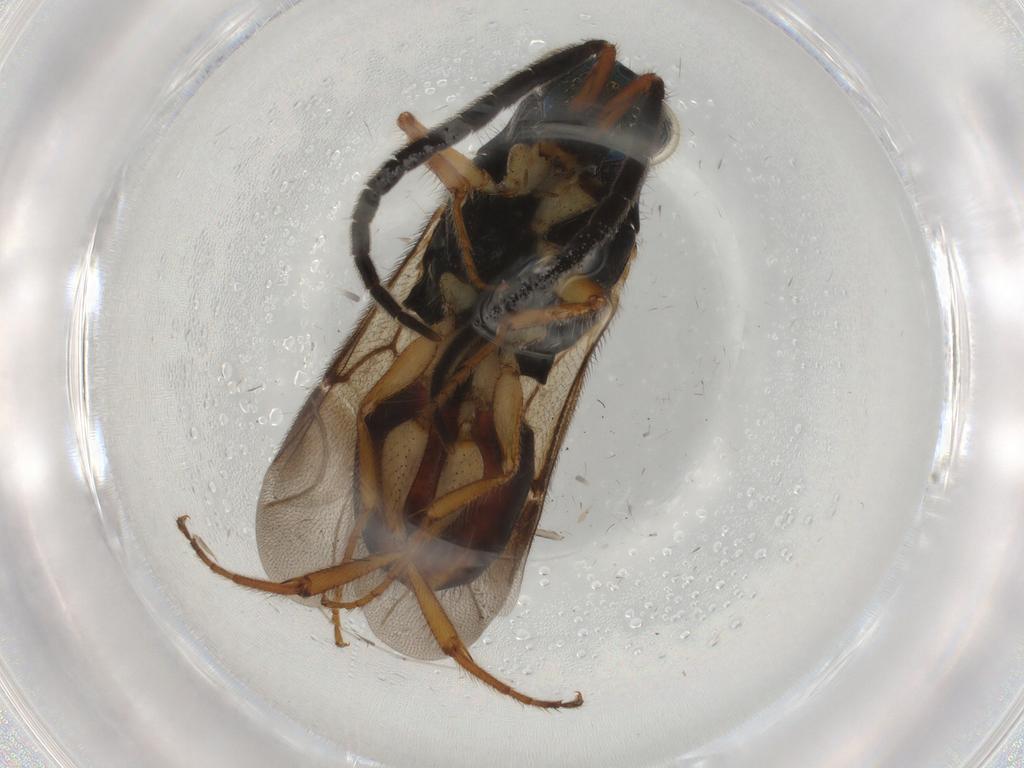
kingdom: Animalia
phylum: Arthropoda
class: Insecta
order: Hymenoptera
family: Chrysididae
